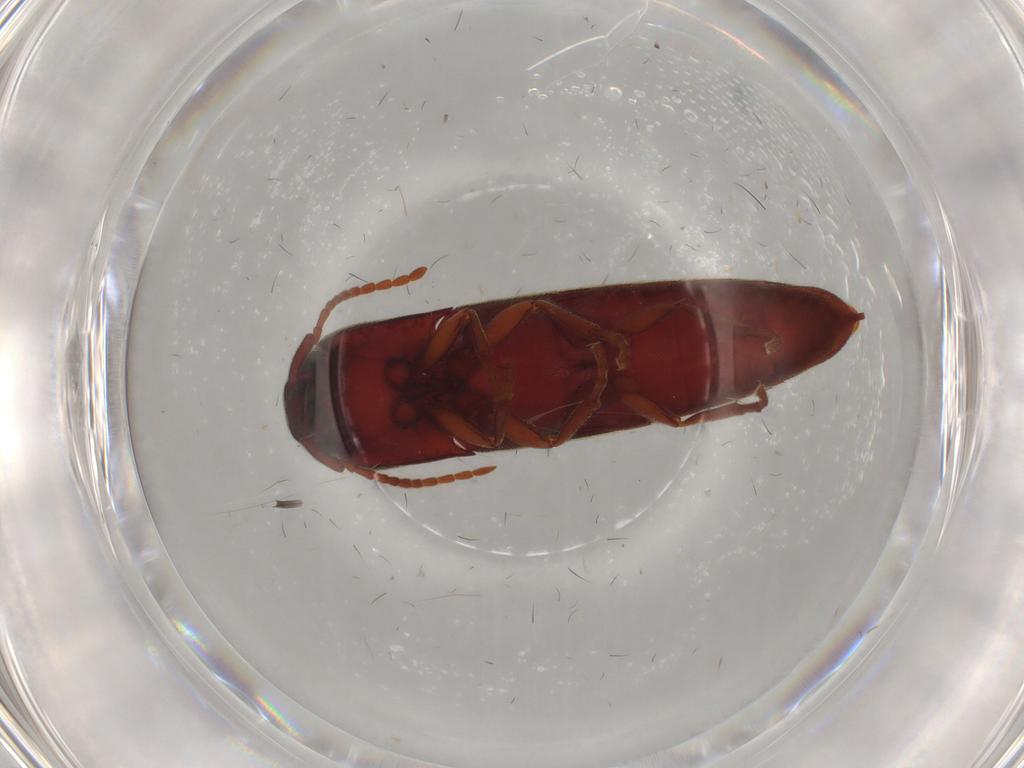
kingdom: Animalia
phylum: Arthropoda
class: Insecta
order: Coleoptera
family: Eucnemidae
